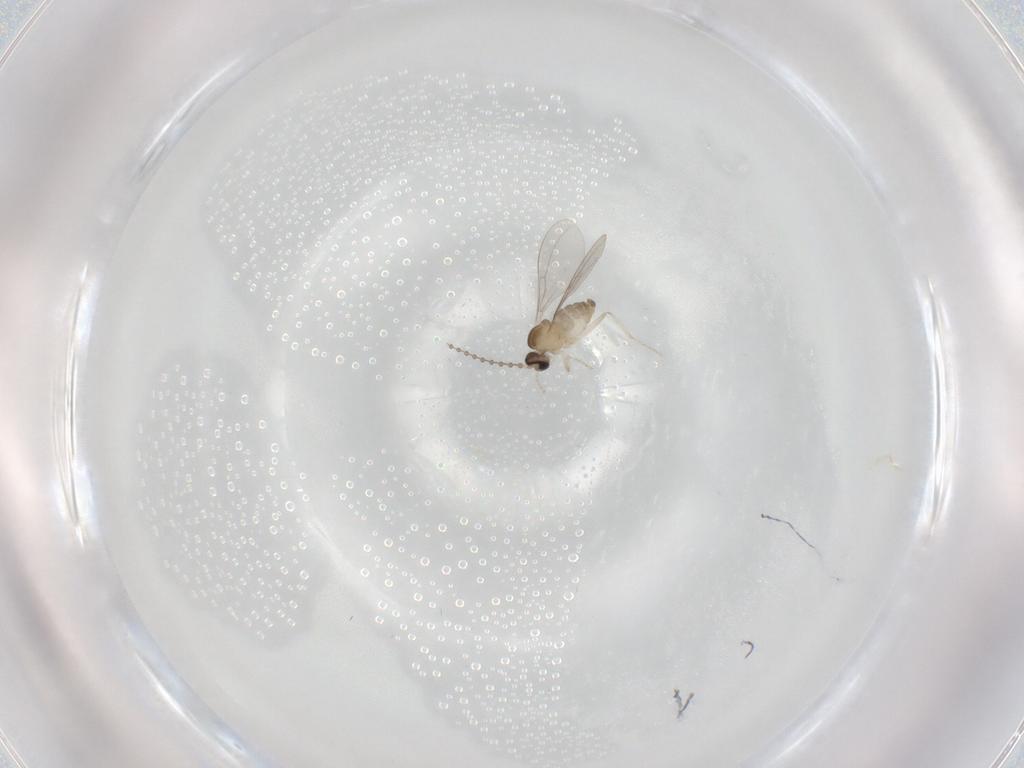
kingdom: Animalia
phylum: Arthropoda
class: Insecta
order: Diptera
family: Cecidomyiidae
